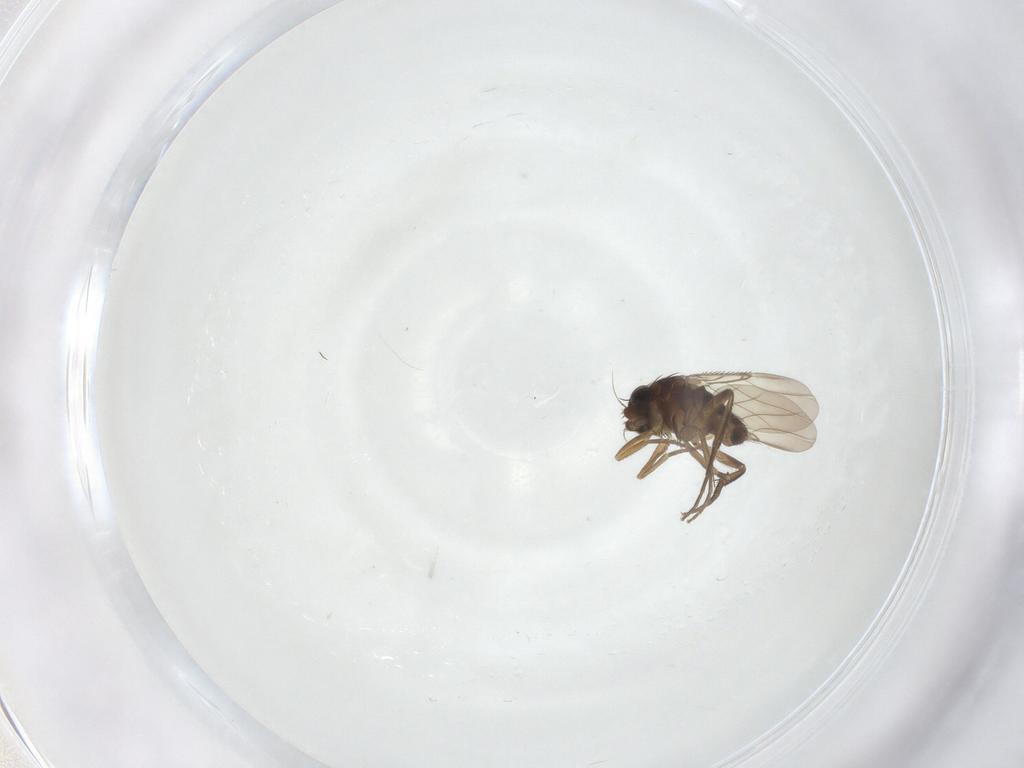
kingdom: Animalia
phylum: Arthropoda
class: Insecta
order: Diptera
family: Phoridae
